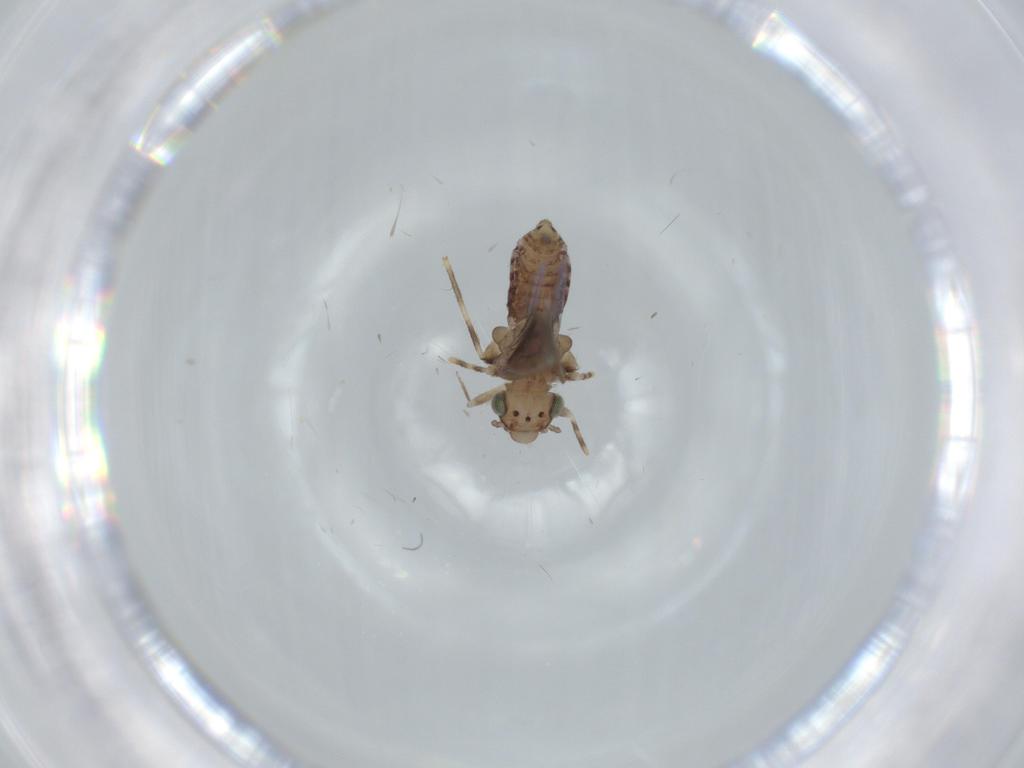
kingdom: Animalia
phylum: Arthropoda
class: Insecta
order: Psocodea
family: Lepidopsocidae
